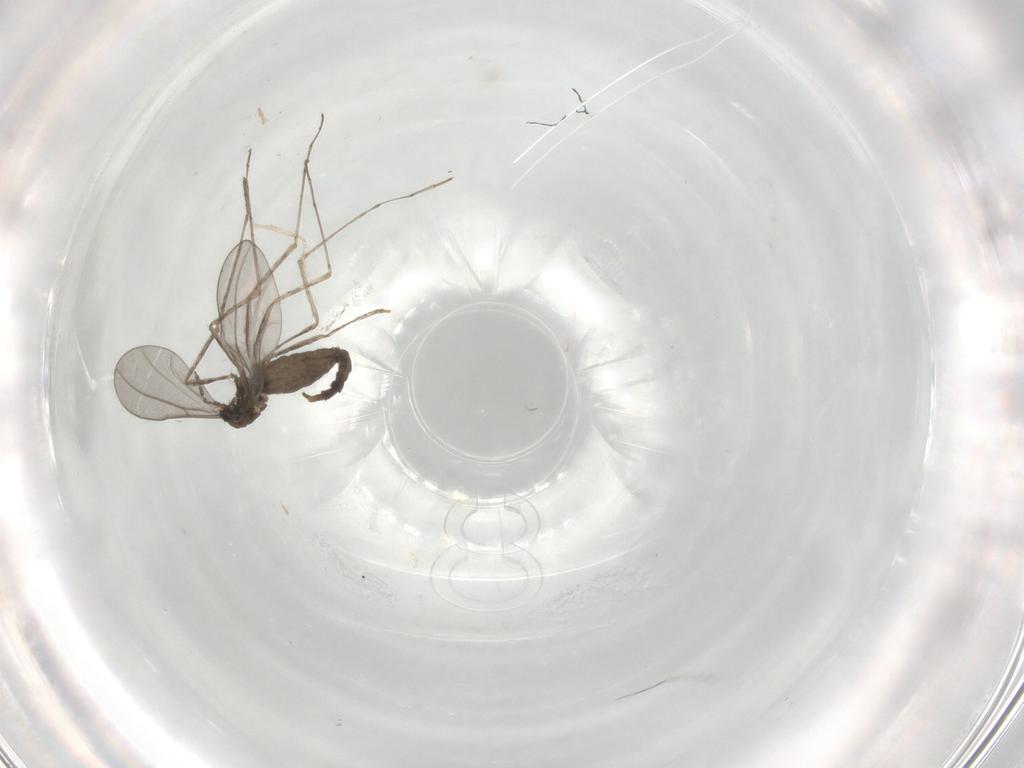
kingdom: Animalia
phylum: Arthropoda
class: Insecta
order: Diptera
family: Cecidomyiidae
